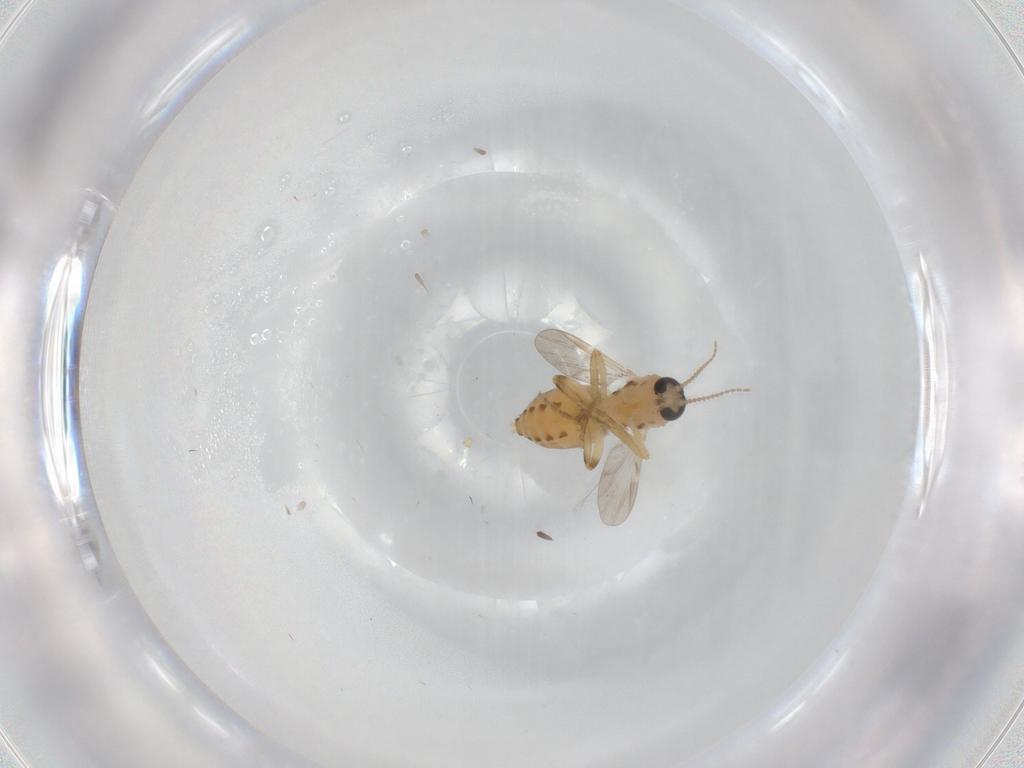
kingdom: Animalia
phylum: Arthropoda
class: Insecta
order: Diptera
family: Ceratopogonidae
